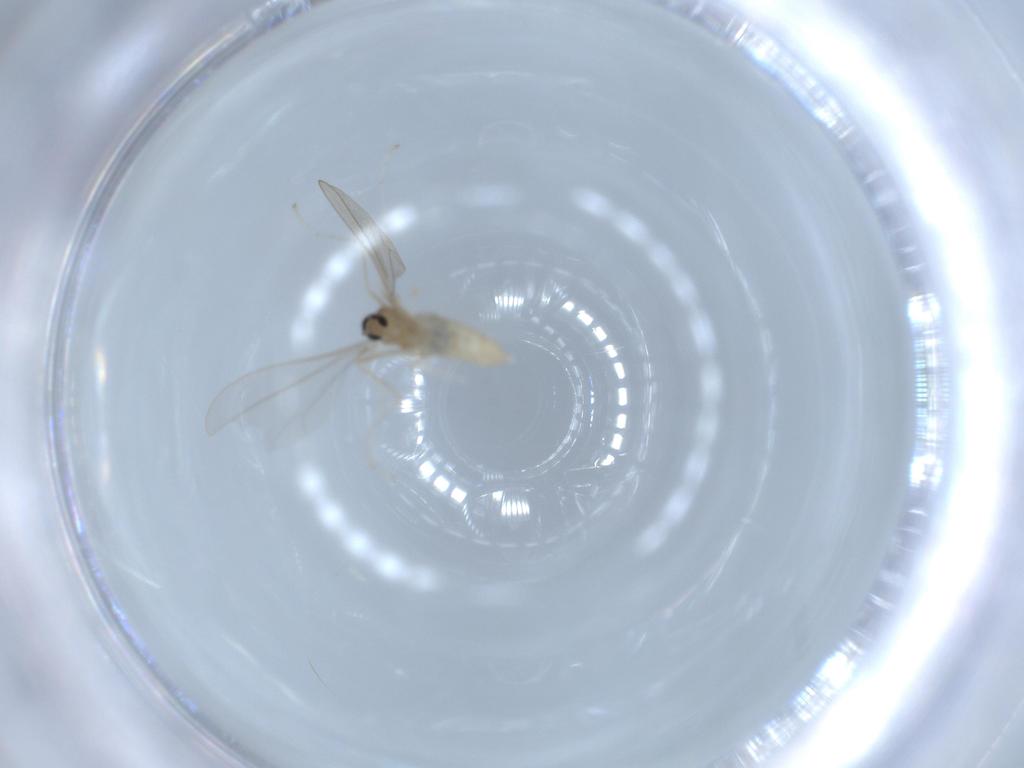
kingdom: Animalia
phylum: Arthropoda
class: Insecta
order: Diptera
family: Cecidomyiidae
